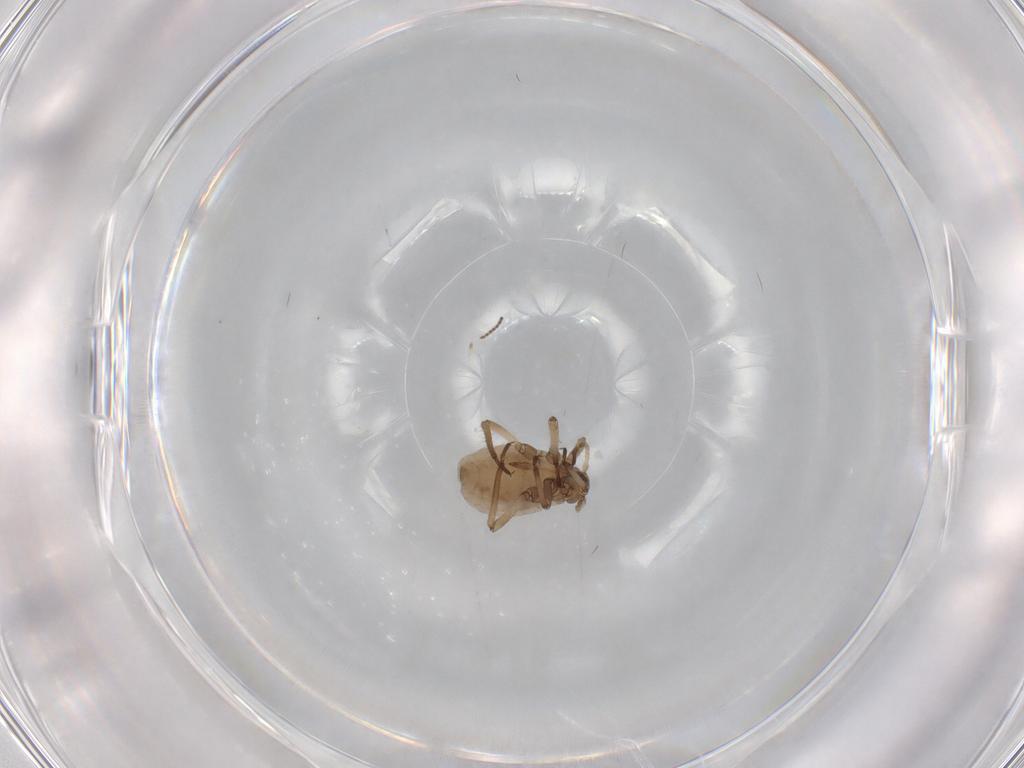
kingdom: Animalia
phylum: Arthropoda
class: Insecta
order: Hemiptera
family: Aphididae
